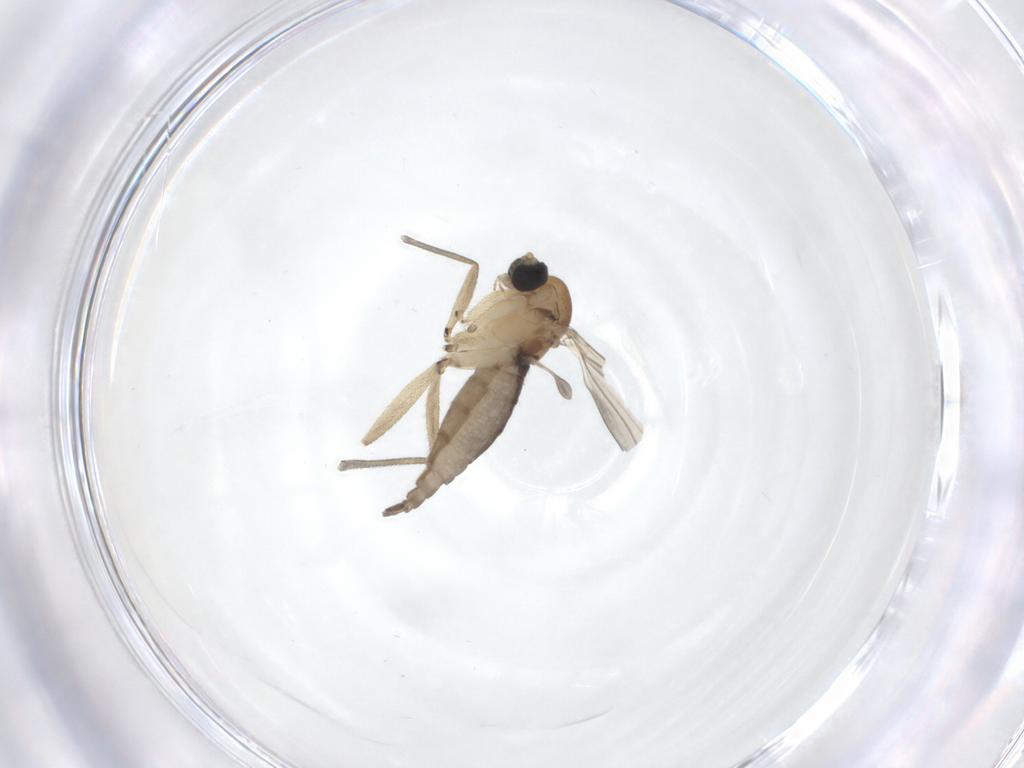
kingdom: Animalia
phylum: Arthropoda
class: Insecta
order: Diptera
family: Sciaridae
